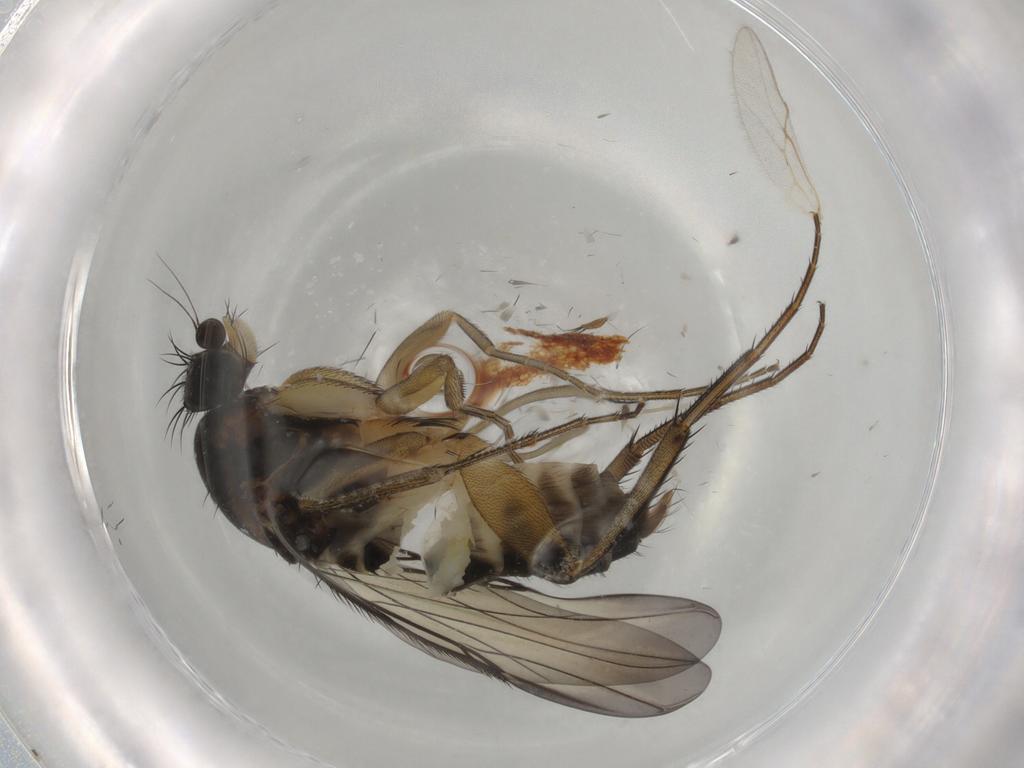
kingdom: Animalia
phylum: Arthropoda
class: Insecta
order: Diptera
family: Phoridae
